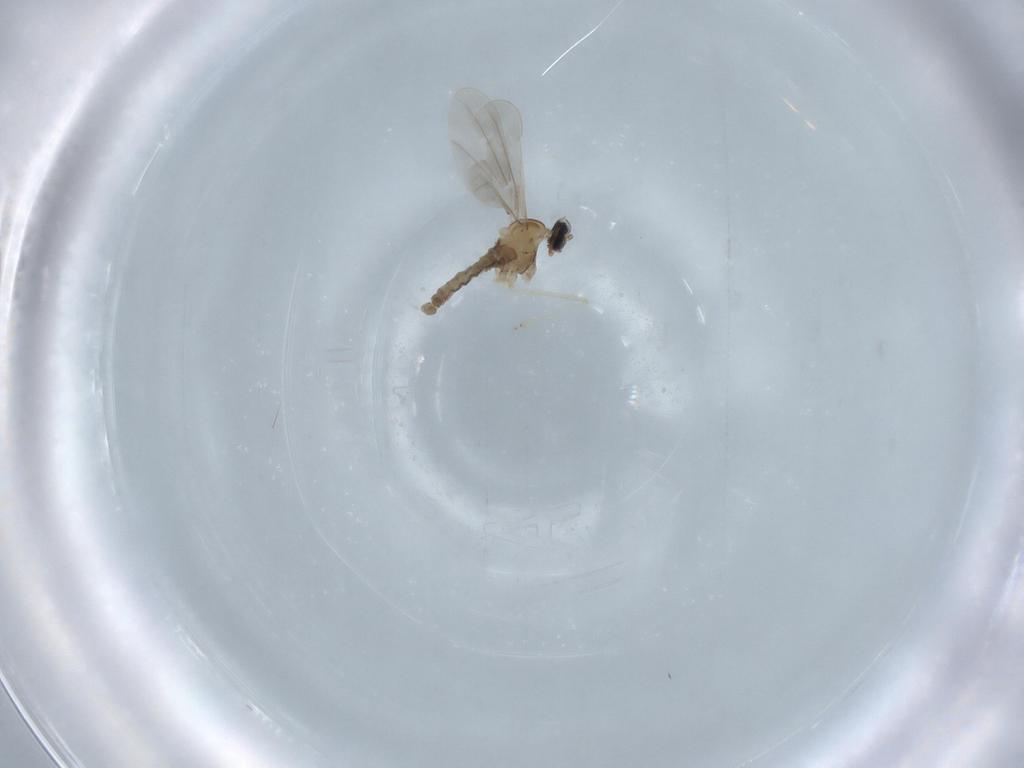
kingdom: Animalia
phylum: Arthropoda
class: Insecta
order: Diptera
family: Cecidomyiidae
